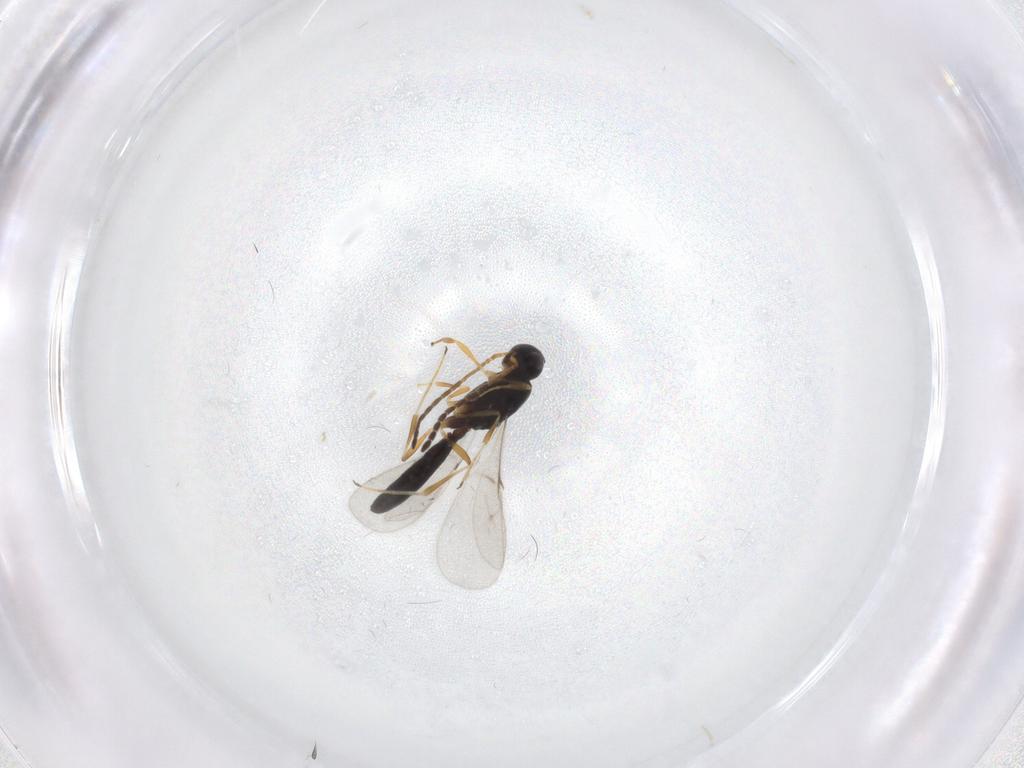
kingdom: Animalia
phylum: Arthropoda
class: Insecta
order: Hymenoptera
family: Scelionidae
